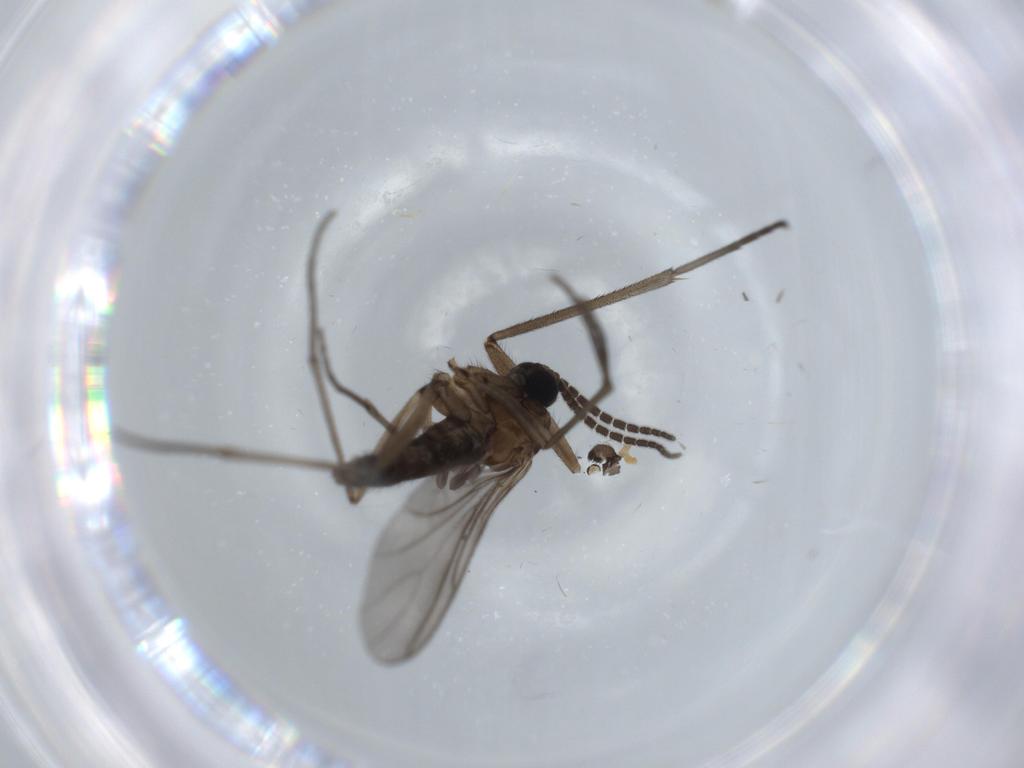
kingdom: Animalia
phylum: Arthropoda
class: Insecta
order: Diptera
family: Sciaridae
